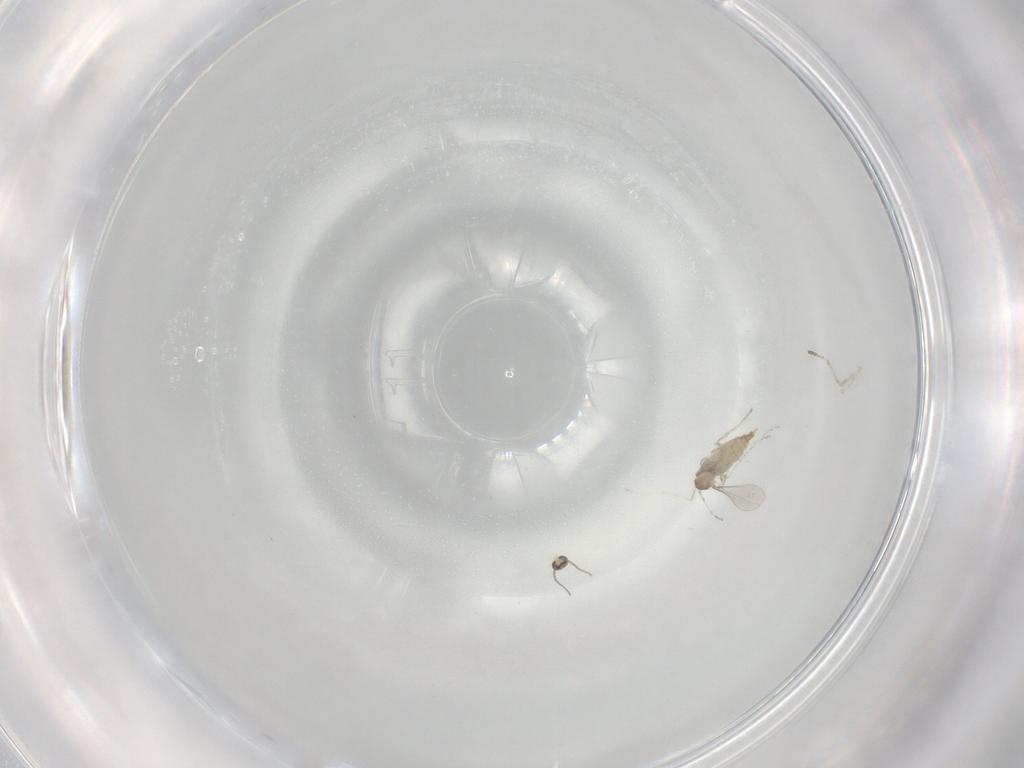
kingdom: Animalia
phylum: Arthropoda
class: Insecta
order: Diptera
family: Cecidomyiidae
